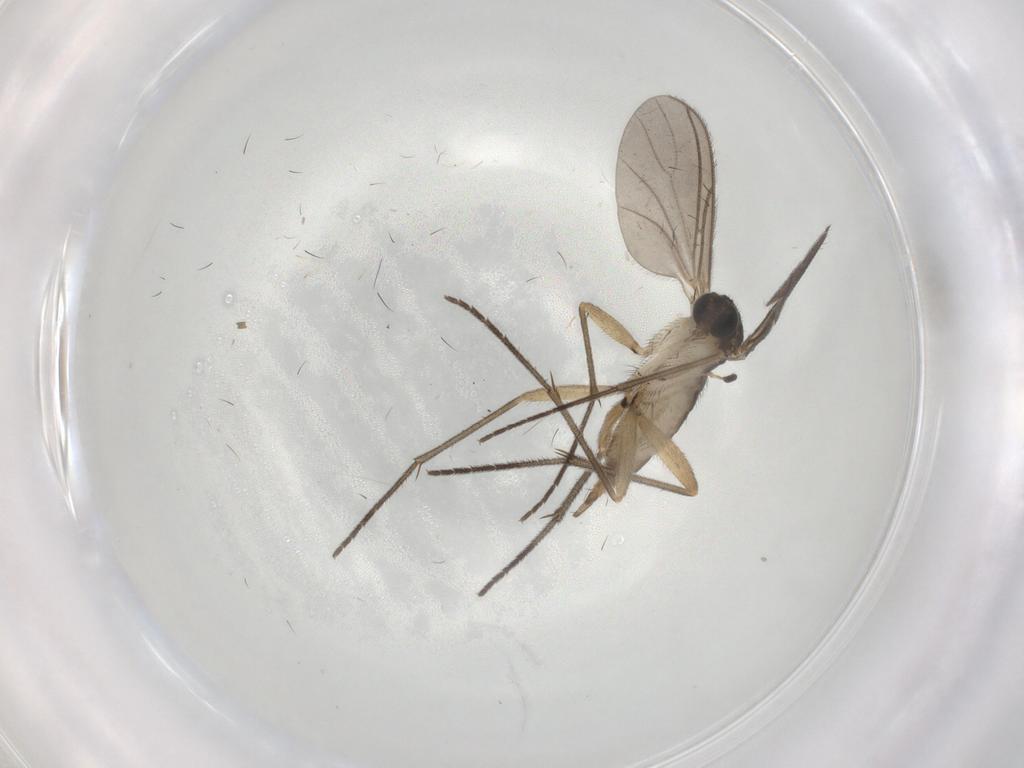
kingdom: Animalia
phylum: Arthropoda
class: Insecta
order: Diptera
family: Sciaridae
